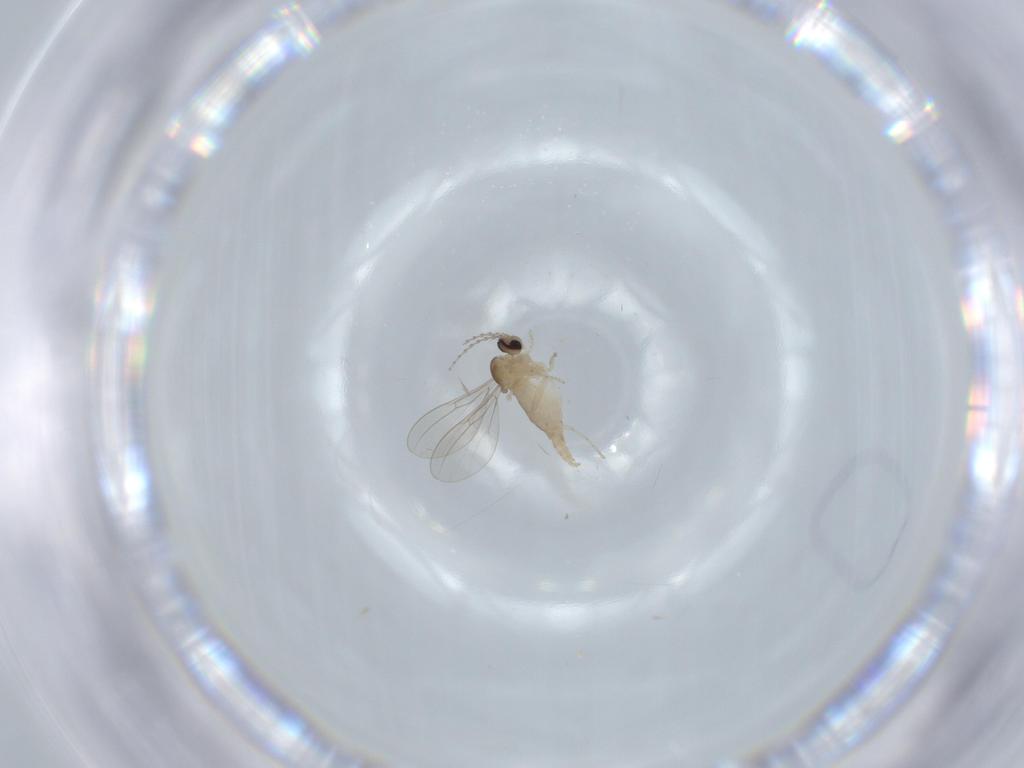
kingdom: Animalia
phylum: Arthropoda
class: Insecta
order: Diptera
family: Cecidomyiidae
